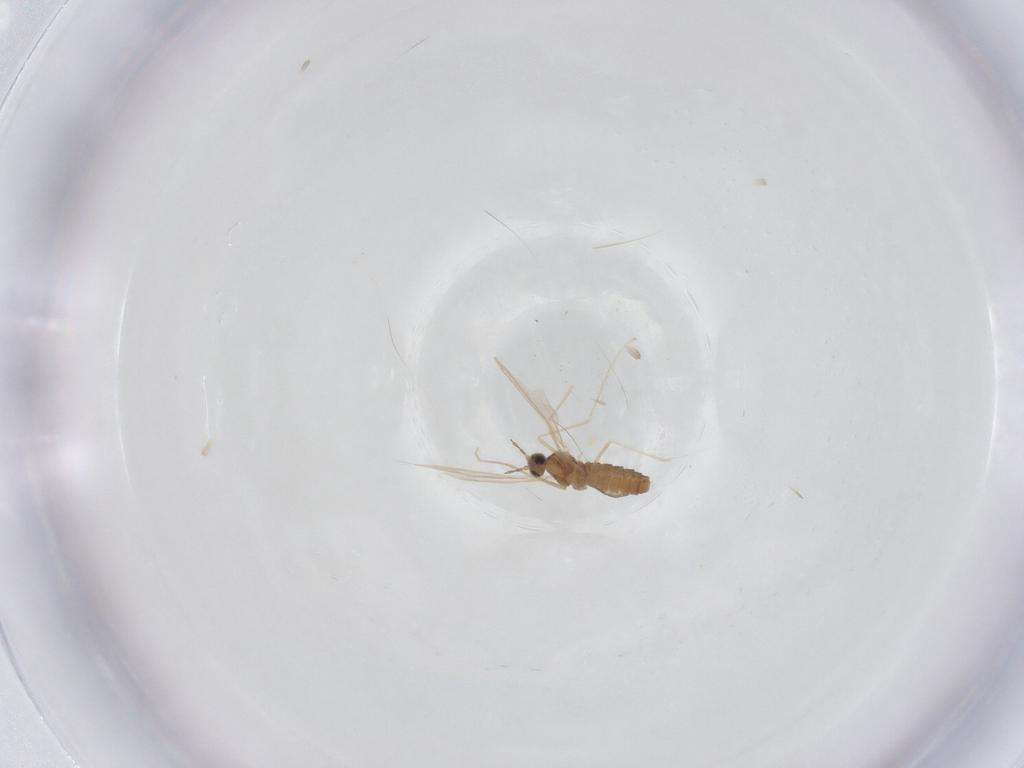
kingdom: Animalia
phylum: Arthropoda
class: Insecta
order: Diptera
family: Cecidomyiidae
